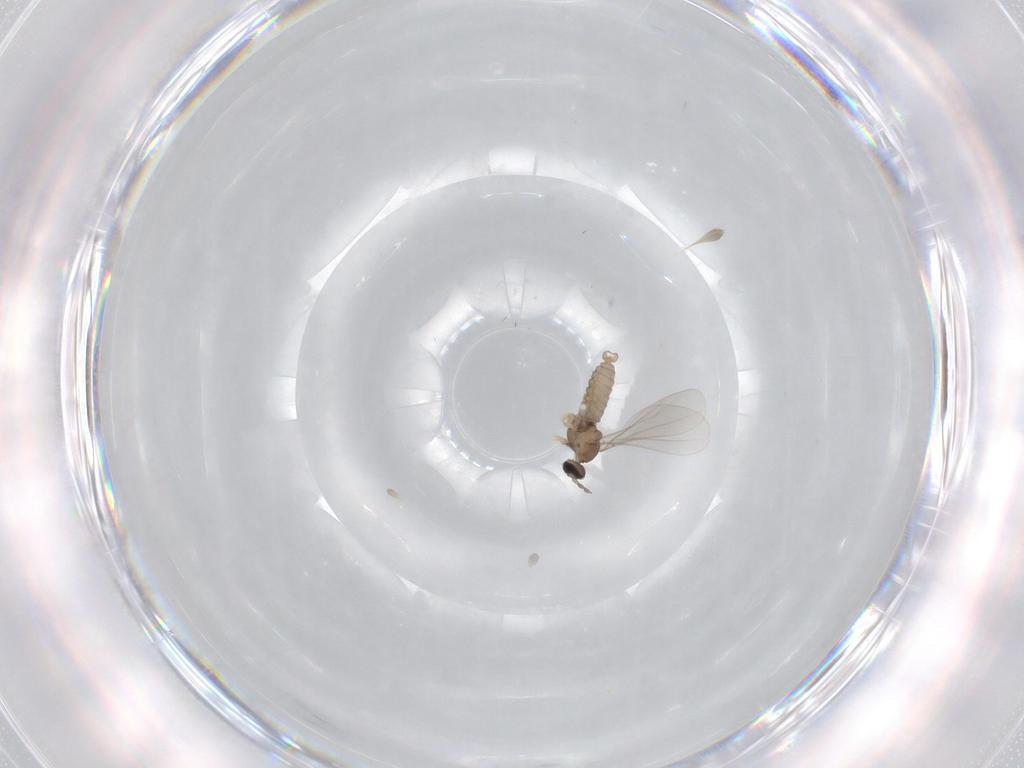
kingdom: Animalia
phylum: Arthropoda
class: Insecta
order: Diptera
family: Cecidomyiidae
